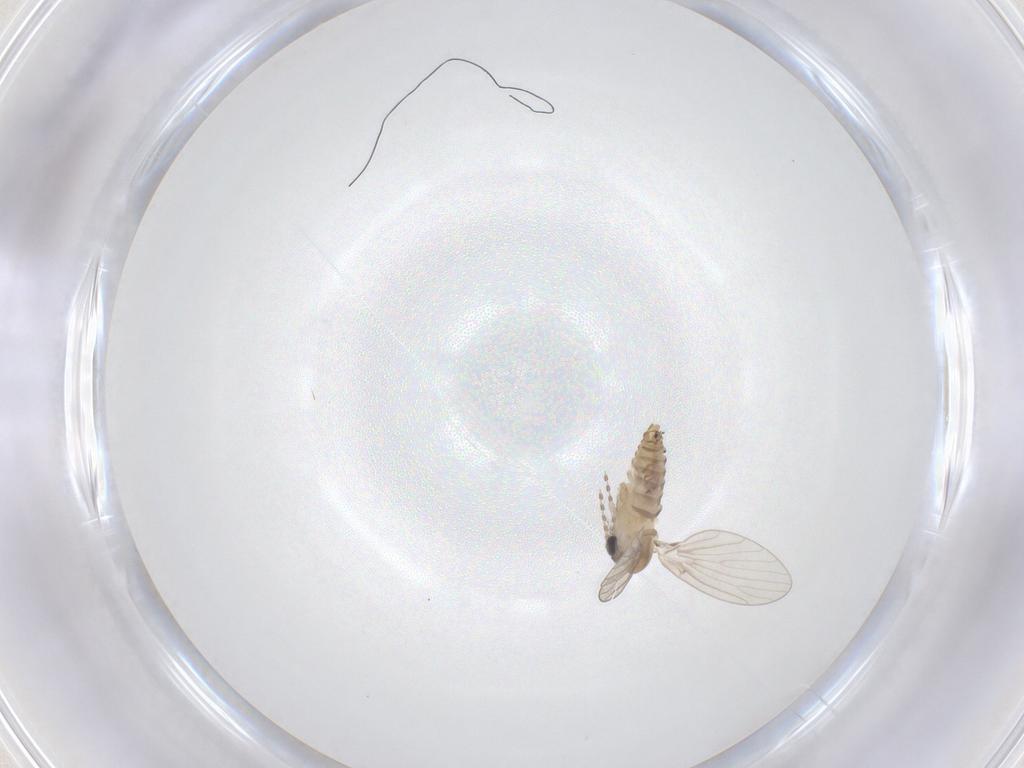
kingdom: Animalia
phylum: Arthropoda
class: Insecta
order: Diptera
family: Psychodidae
